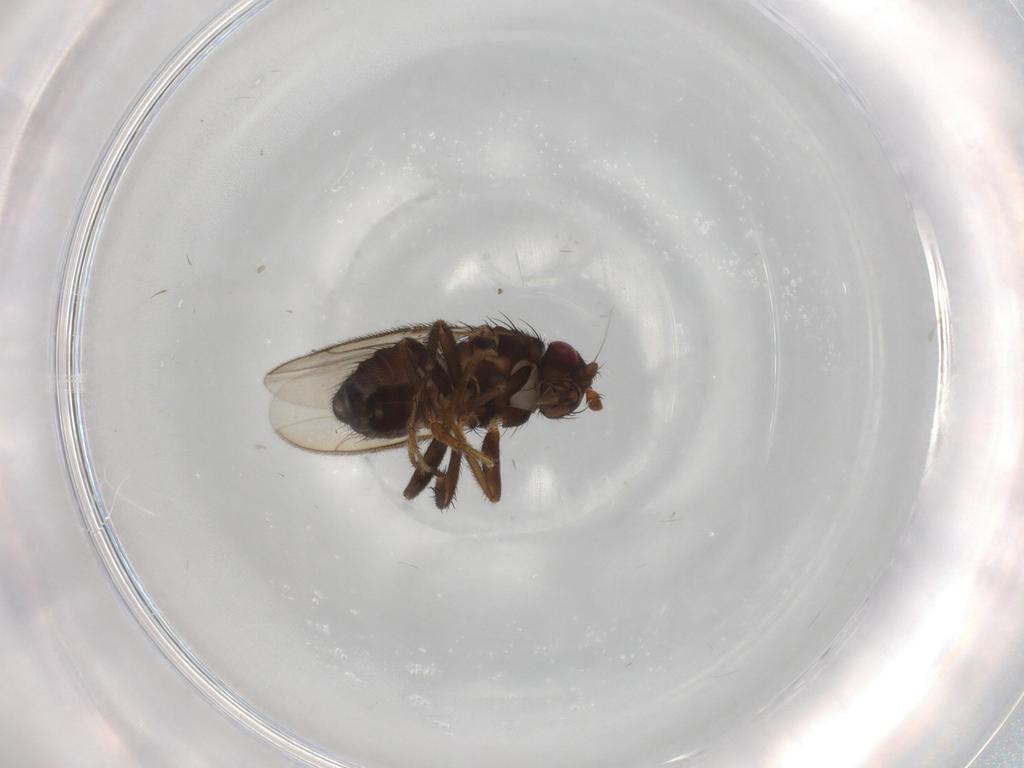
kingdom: Animalia
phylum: Arthropoda
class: Insecta
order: Diptera
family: Sphaeroceridae
